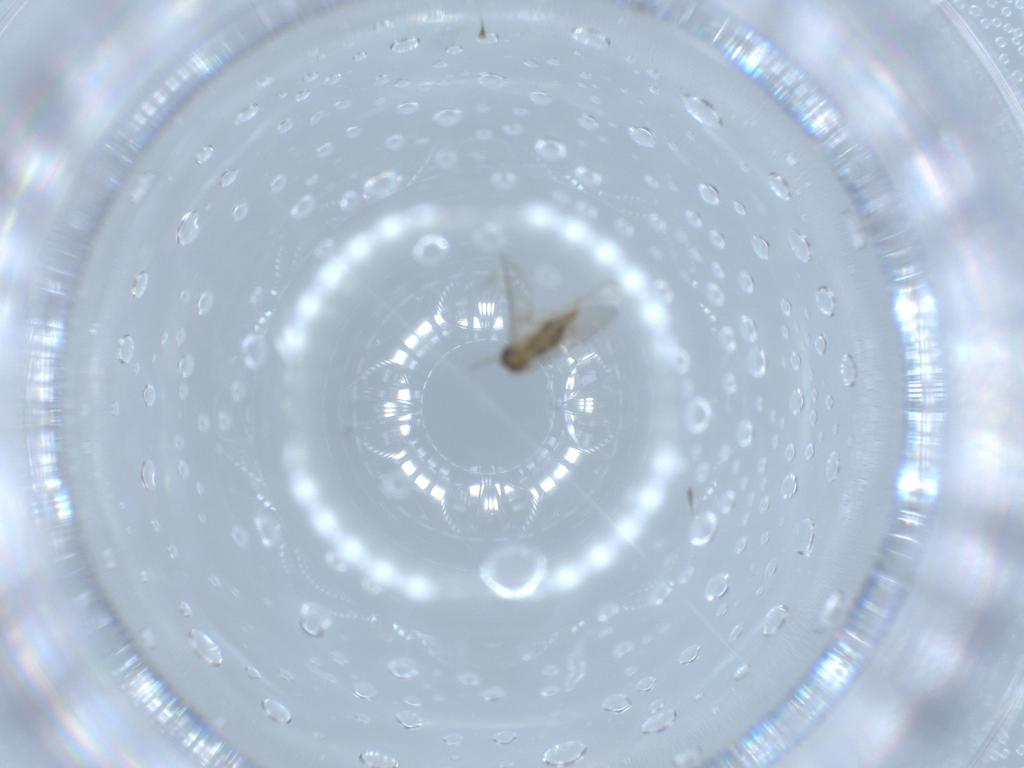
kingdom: Animalia
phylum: Arthropoda
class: Insecta
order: Diptera
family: Cecidomyiidae
